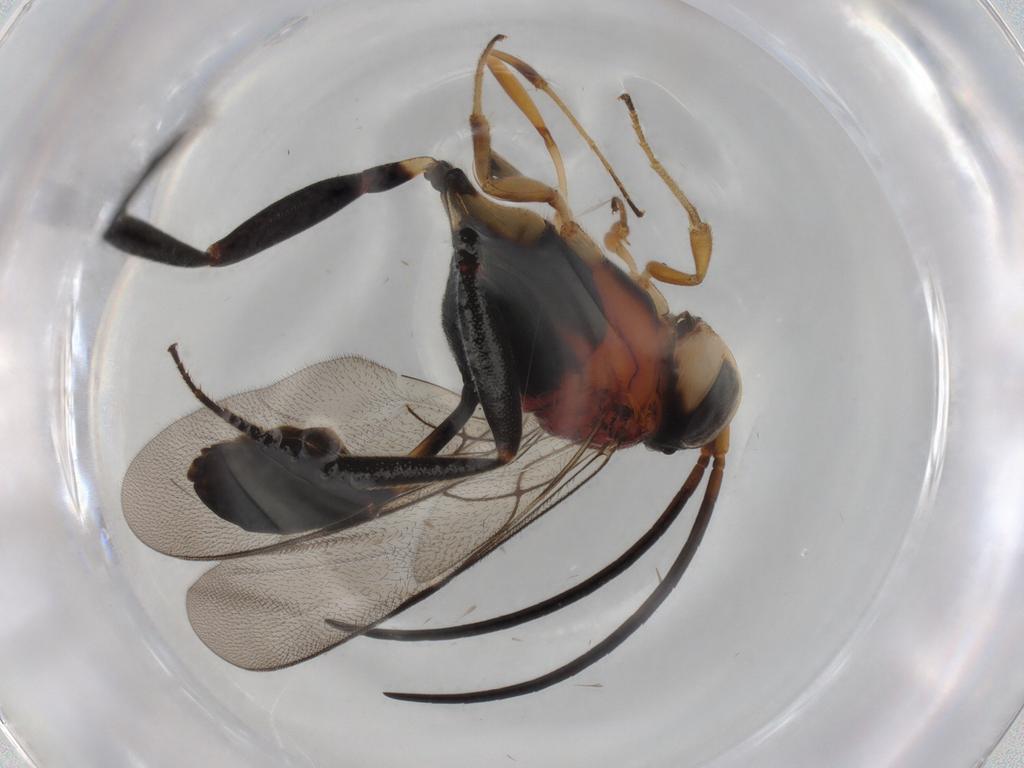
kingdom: Animalia
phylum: Arthropoda
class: Insecta
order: Hymenoptera
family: Evaniidae
